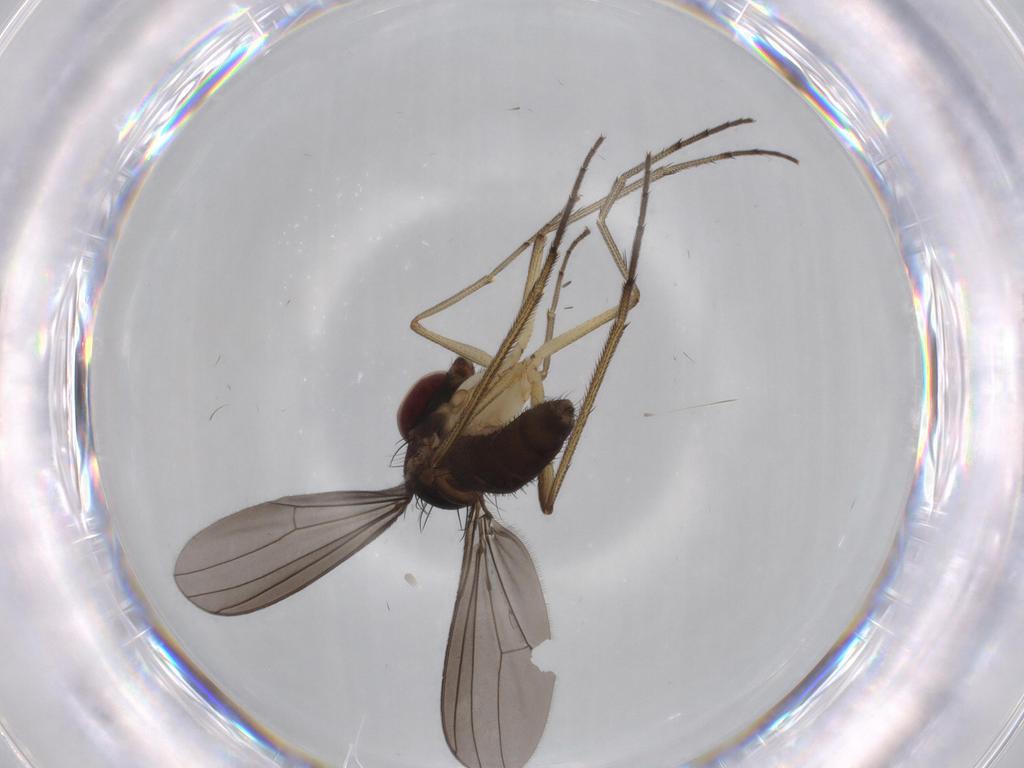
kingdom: Animalia
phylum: Arthropoda
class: Insecta
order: Diptera
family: Dolichopodidae
